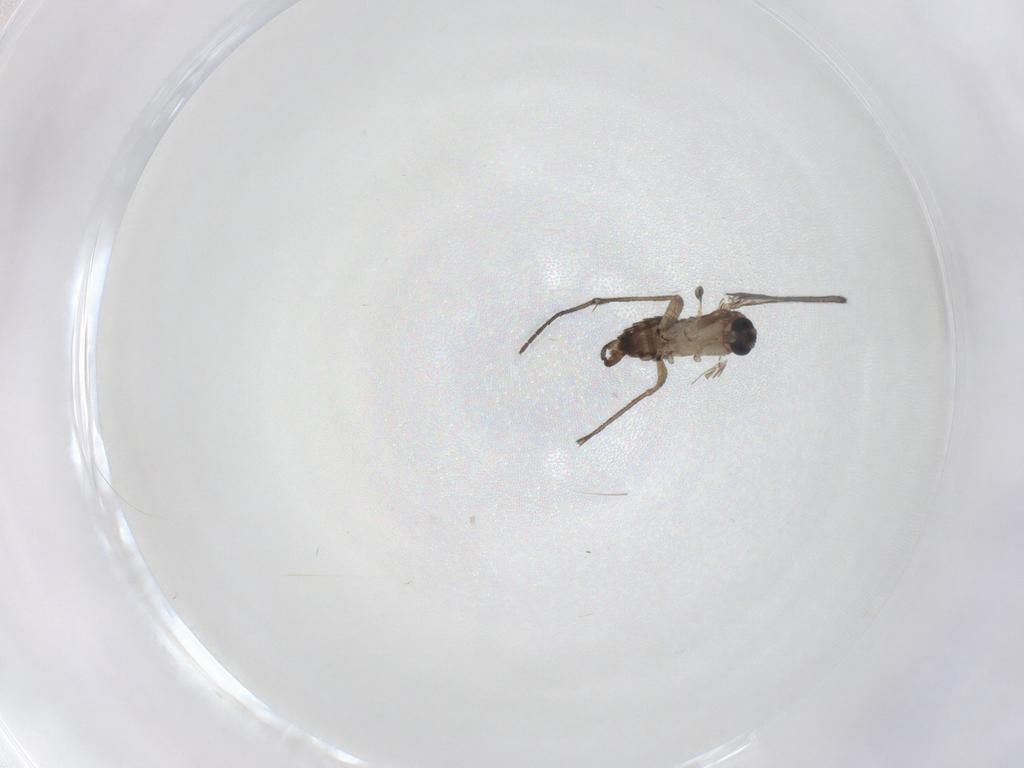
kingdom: Animalia
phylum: Arthropoda
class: Insecta
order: Diptera
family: Sciaridae
